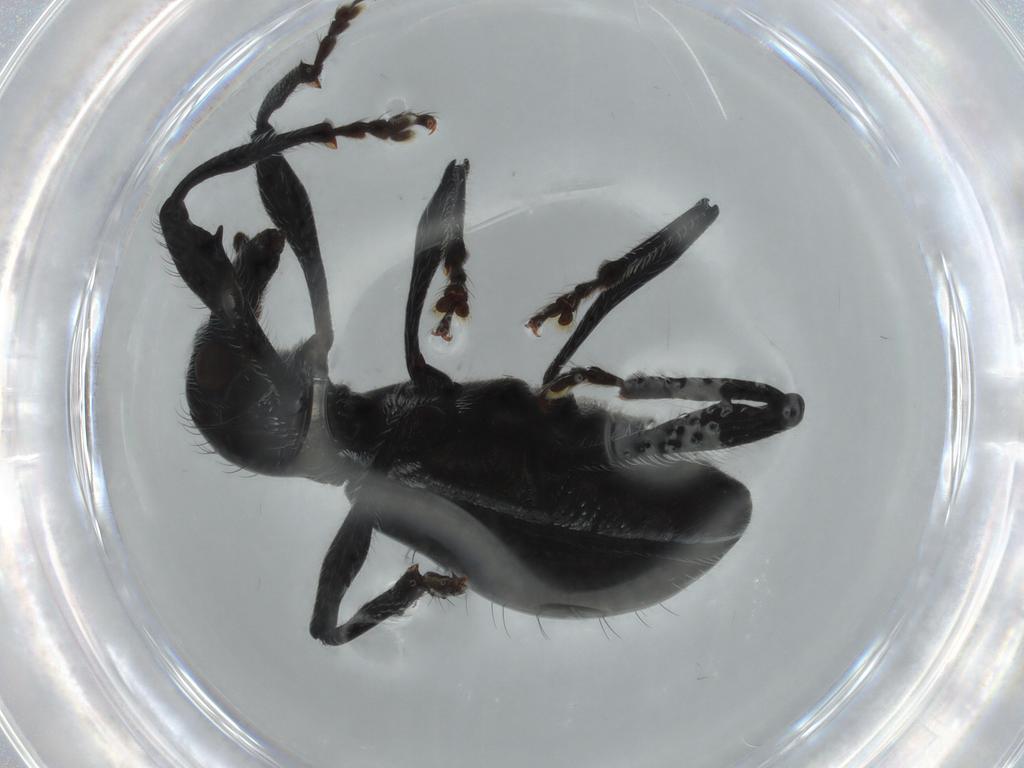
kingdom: Animalia
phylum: Arthropoda
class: Insecta
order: Coleoptera
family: Curculionidae
